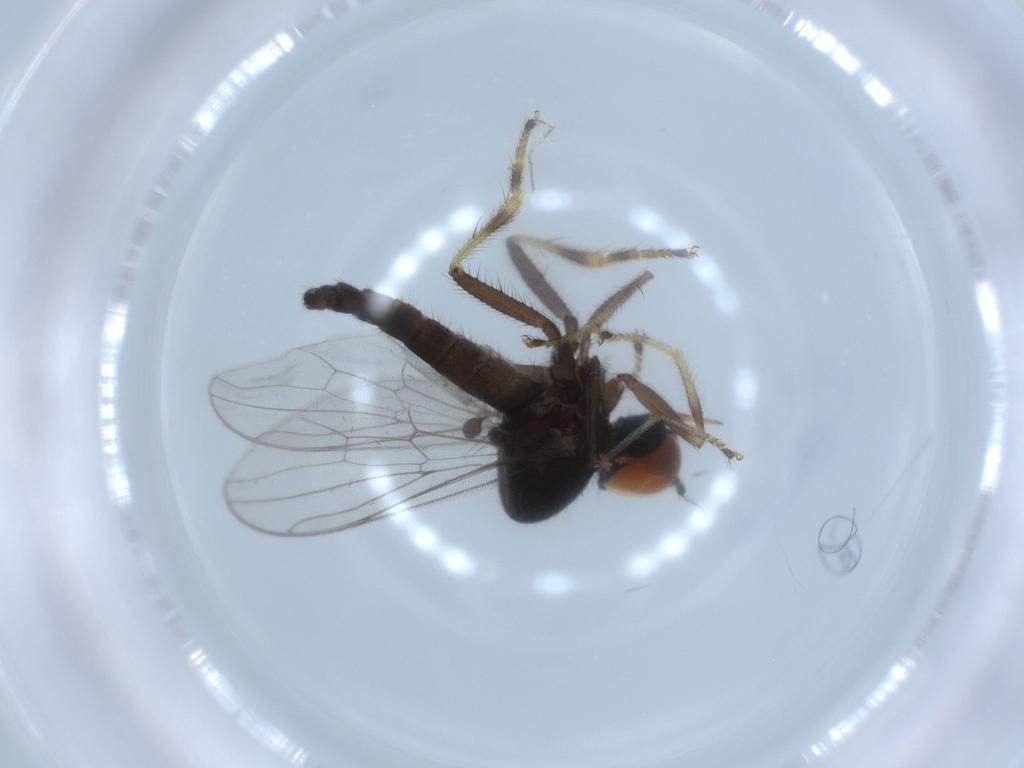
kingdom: Animalia
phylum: Arthropoda
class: Insecta
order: Diptera
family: Hybotidae
